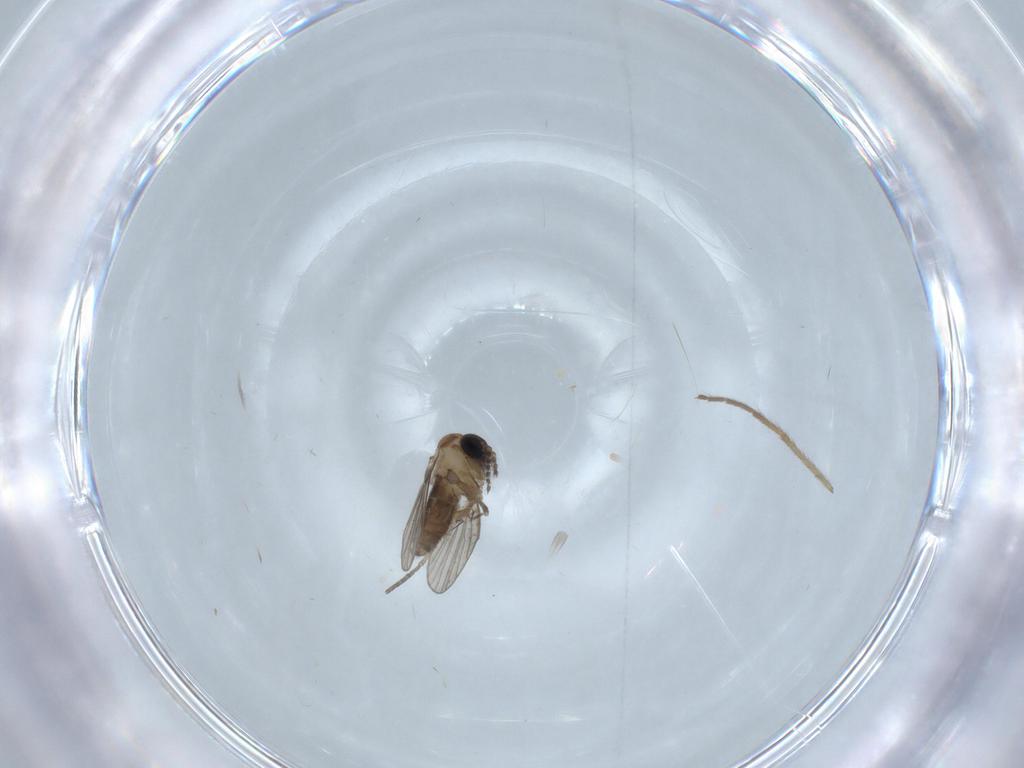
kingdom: Animalia
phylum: Arthropoda
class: Insecta
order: Diptera
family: Psychodidae
